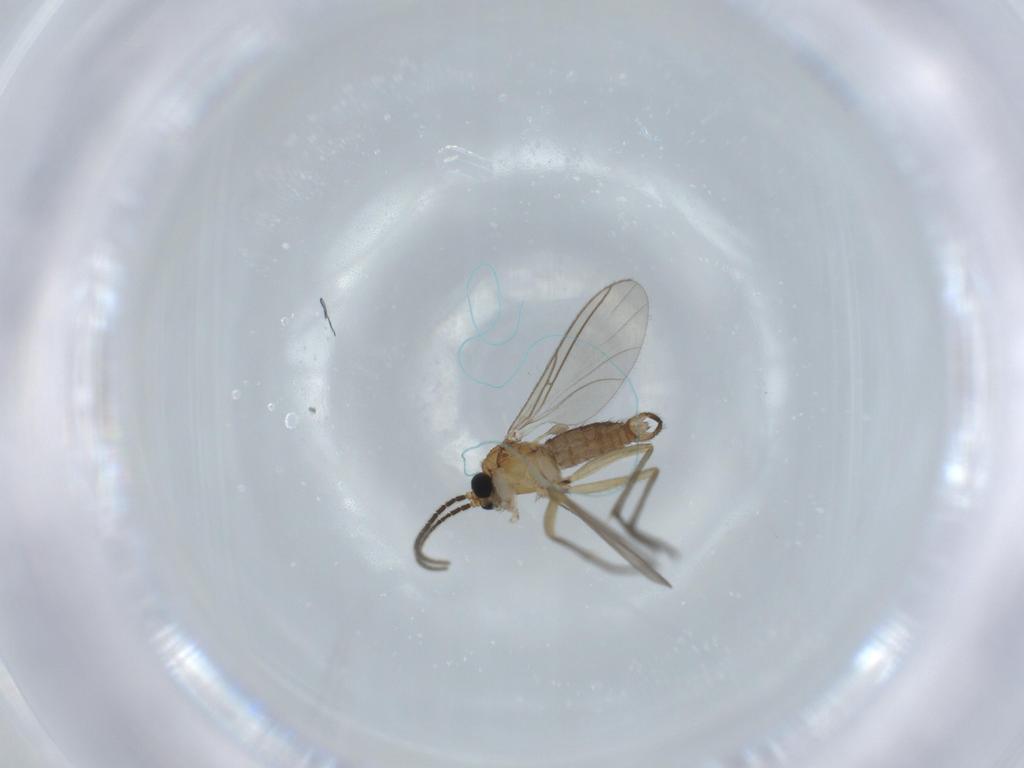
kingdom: Animalia
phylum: Arthropoda
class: Insecta
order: Diptera
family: Sciaridae
